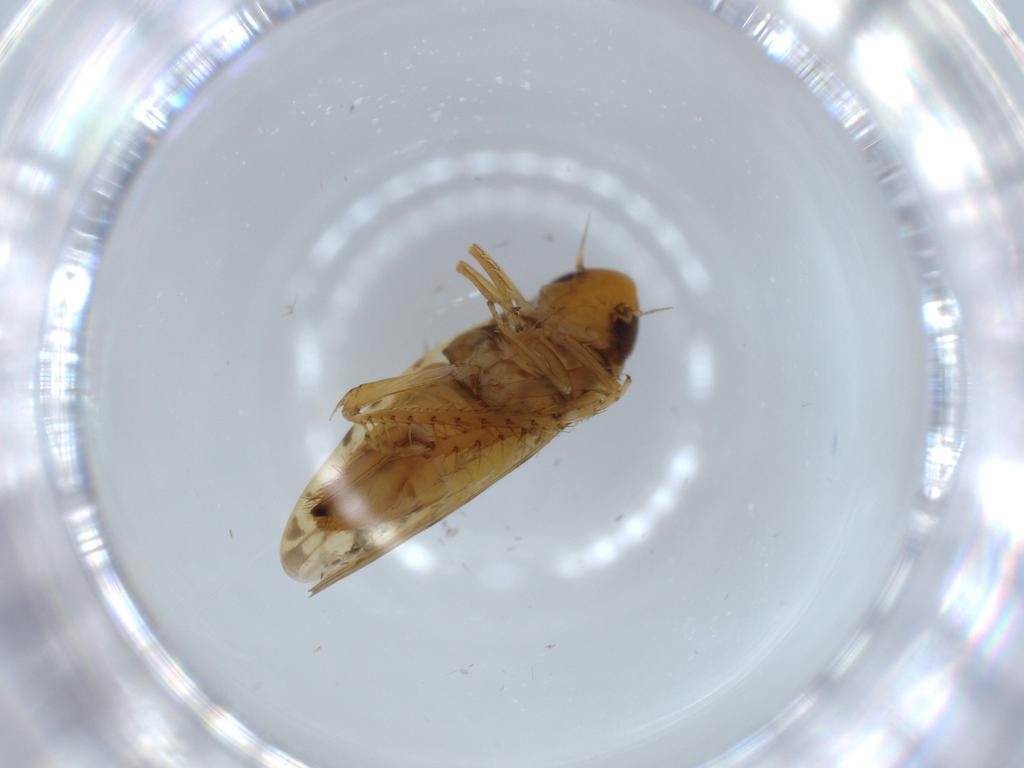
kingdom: Animalia
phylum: Arthropoda
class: Insecta
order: Hemiptera
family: Cicadellidae
